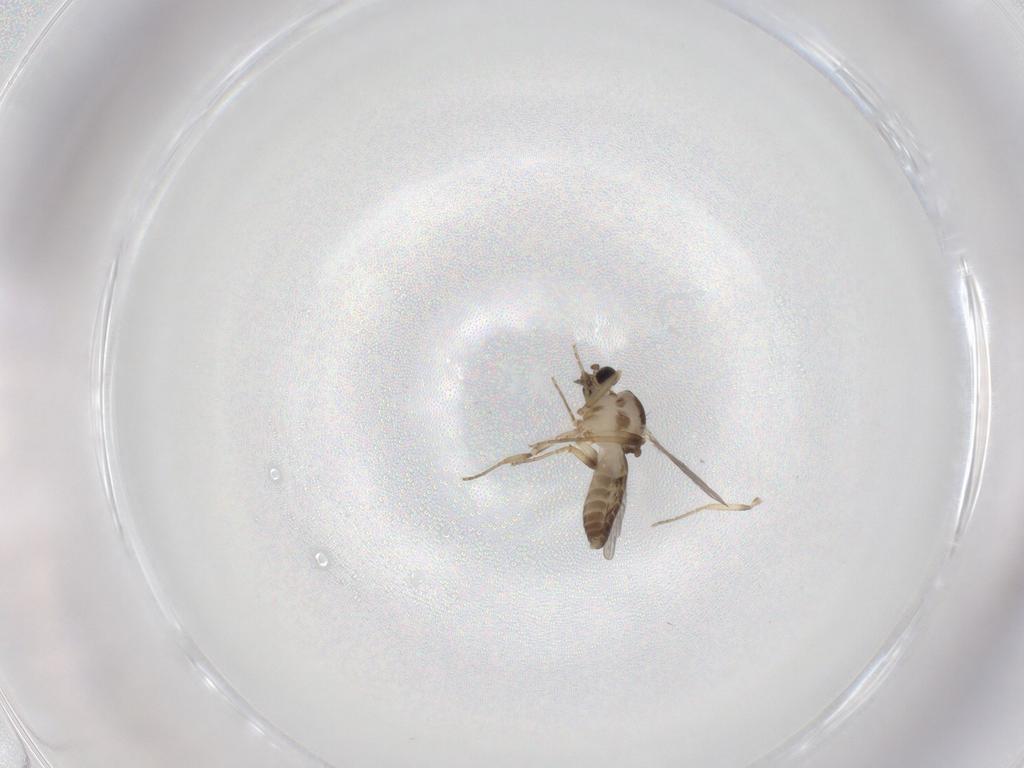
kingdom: Animalia
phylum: Arthropoda
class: Insecta
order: Diptera
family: Ceratopogonidae
